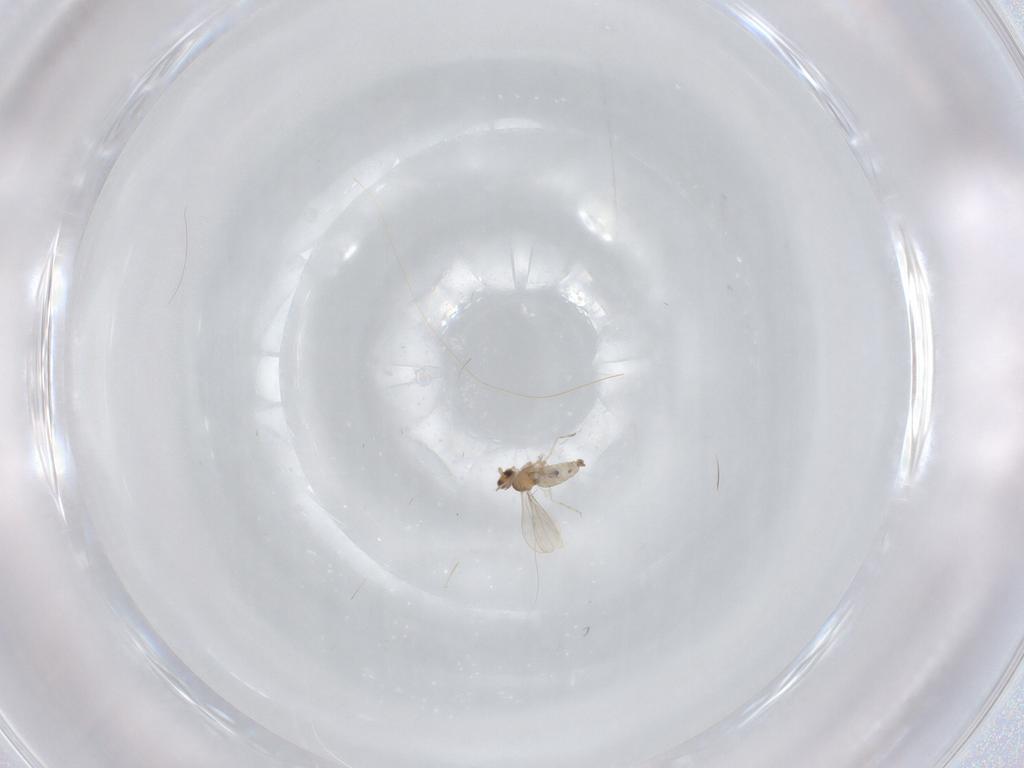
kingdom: Animalia
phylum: Arthropoda
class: Insecta
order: Diptera
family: Cecidomyiidae
